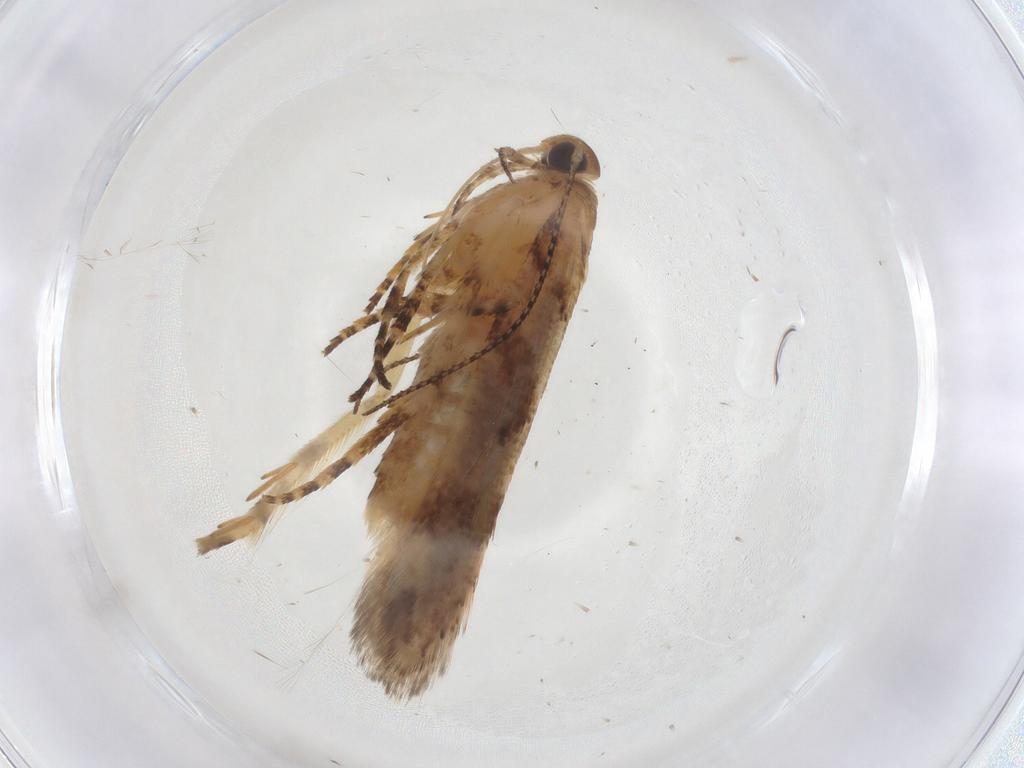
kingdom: Animalia
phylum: Arthropoda
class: Insecta
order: Lepidoptera
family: Gelechiidae
